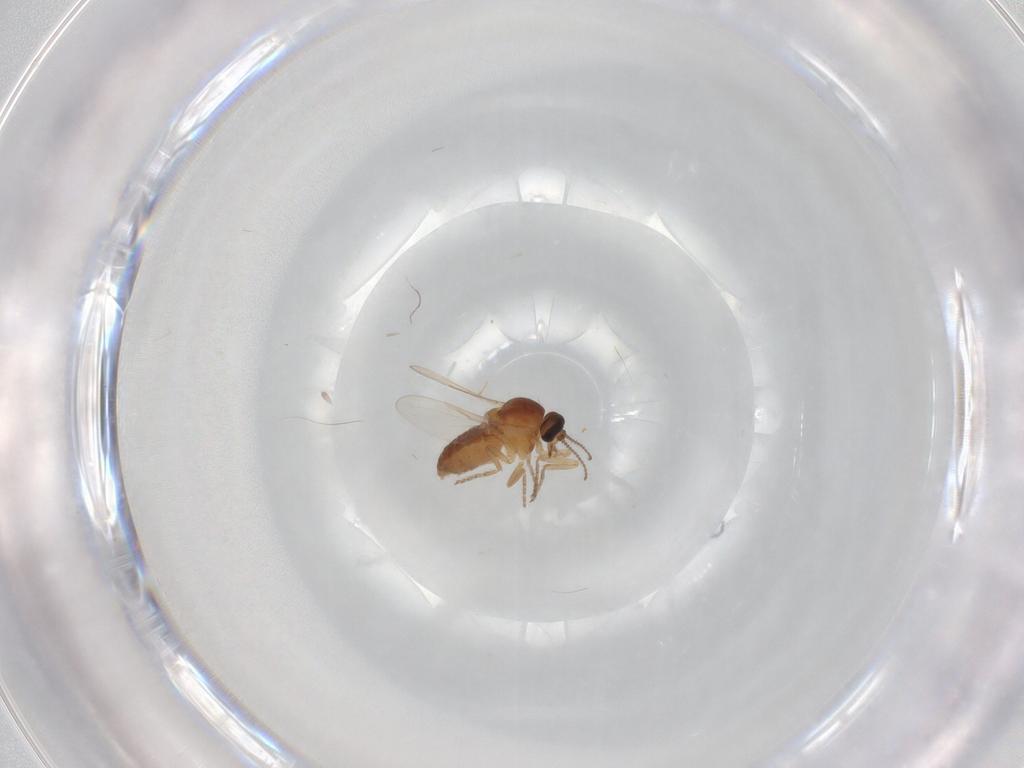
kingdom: Animalia
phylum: Arthropoda
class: Insecta
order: Diptera
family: Ceratopogonidae
